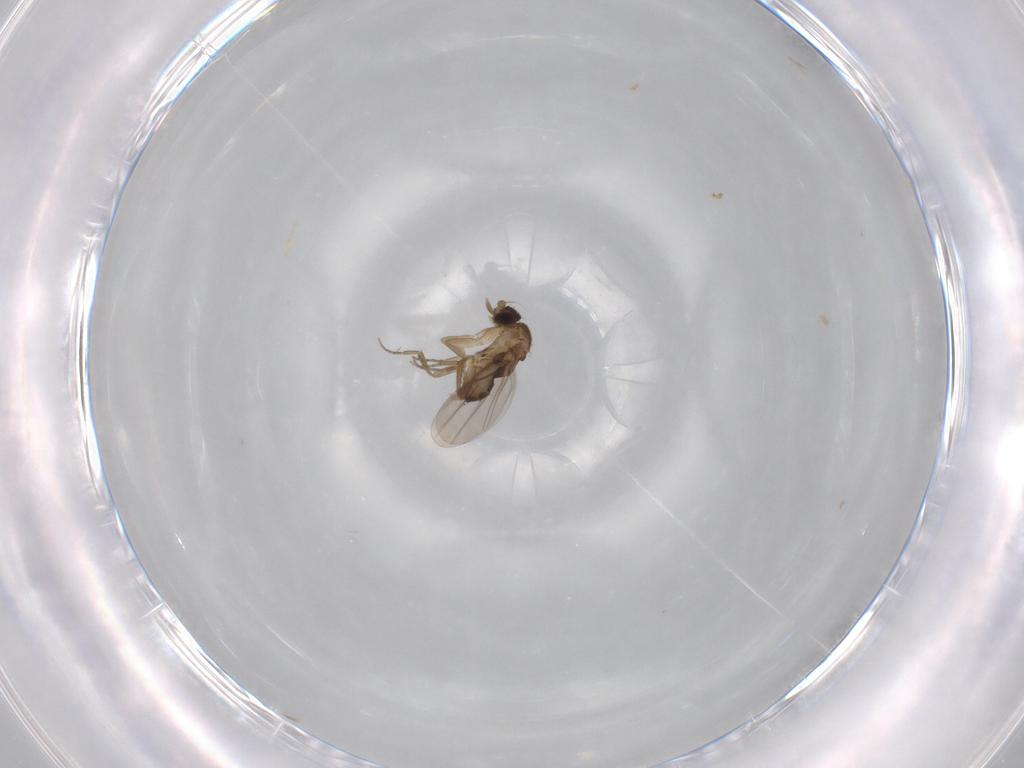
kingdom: Animalia
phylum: Arthropoda
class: Insecta
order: Diptera
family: Phoridae
